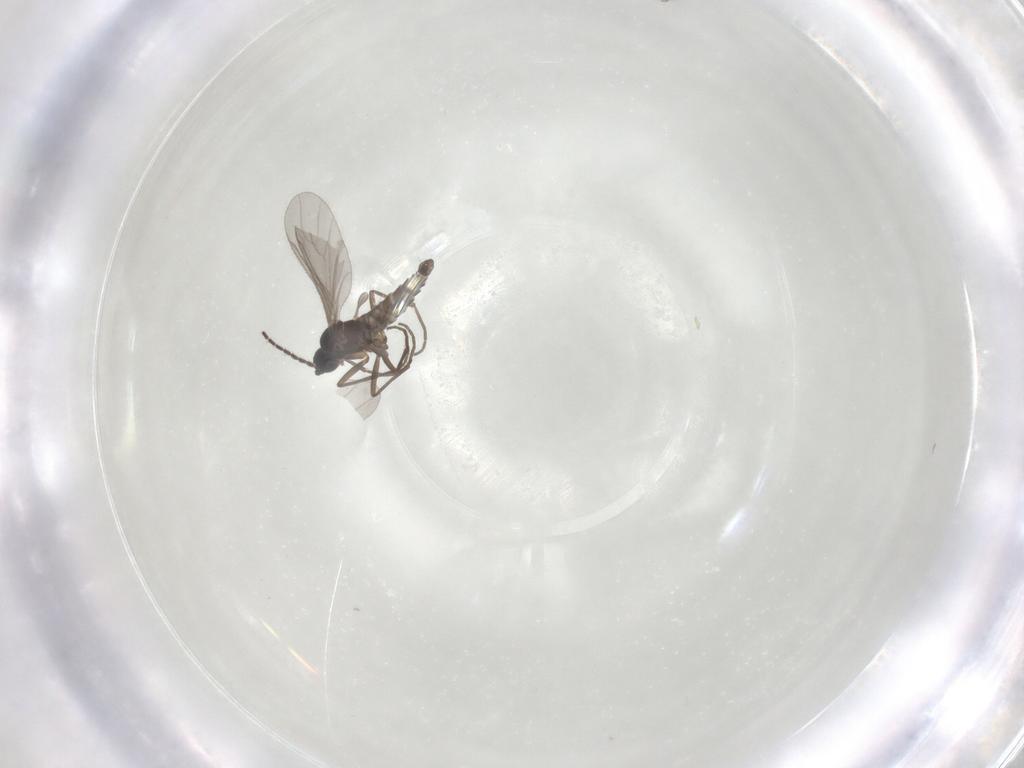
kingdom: Animalia
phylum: Arthropoda
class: Insecta
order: Diptera
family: Sciaridae
